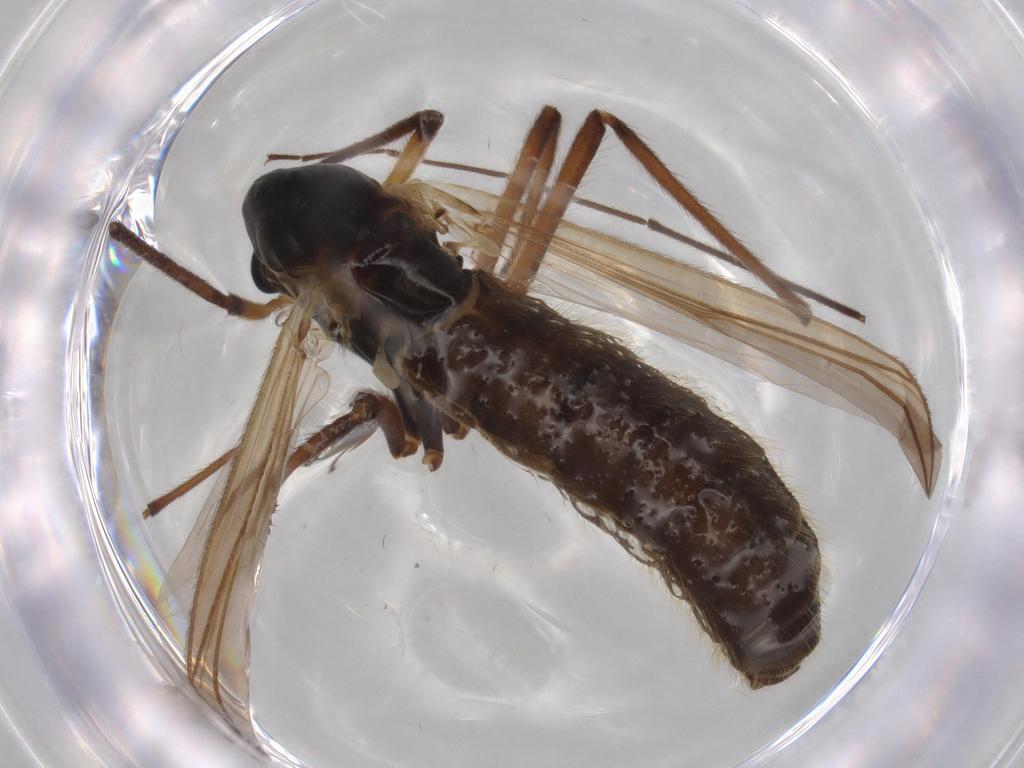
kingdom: Animalia
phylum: Arthropoda
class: Insecta
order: Diptera
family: Chironomidae
